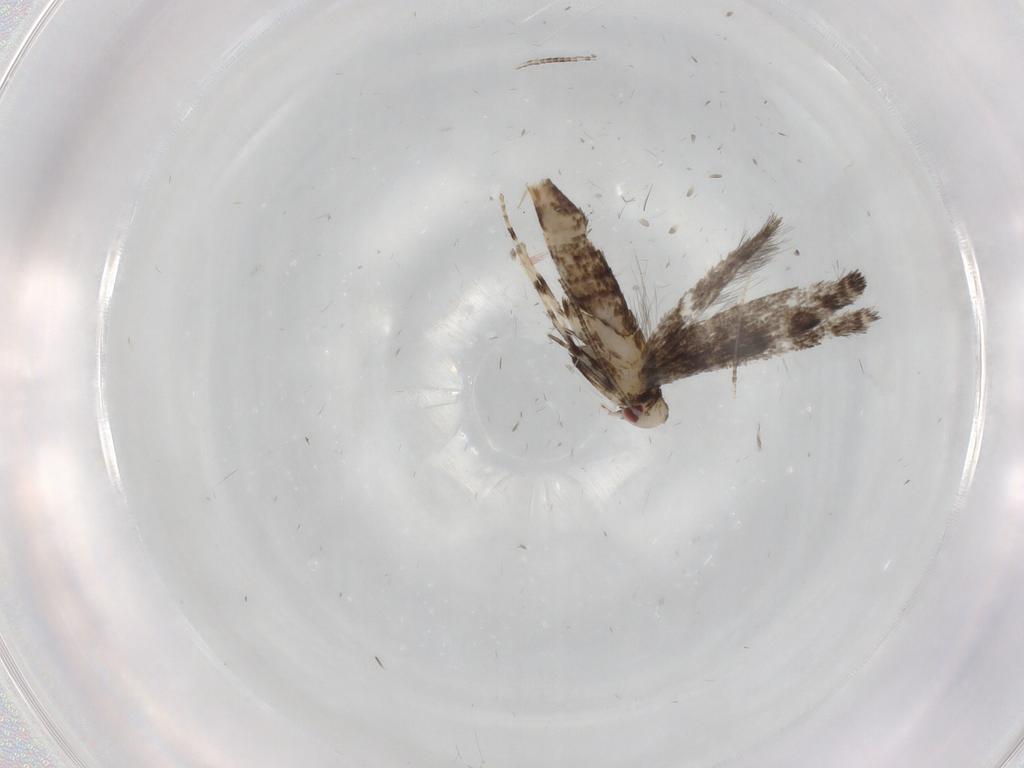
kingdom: Animalia
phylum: Arthropoda
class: Insecta
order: Lepidoptera
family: Gracillariidae
